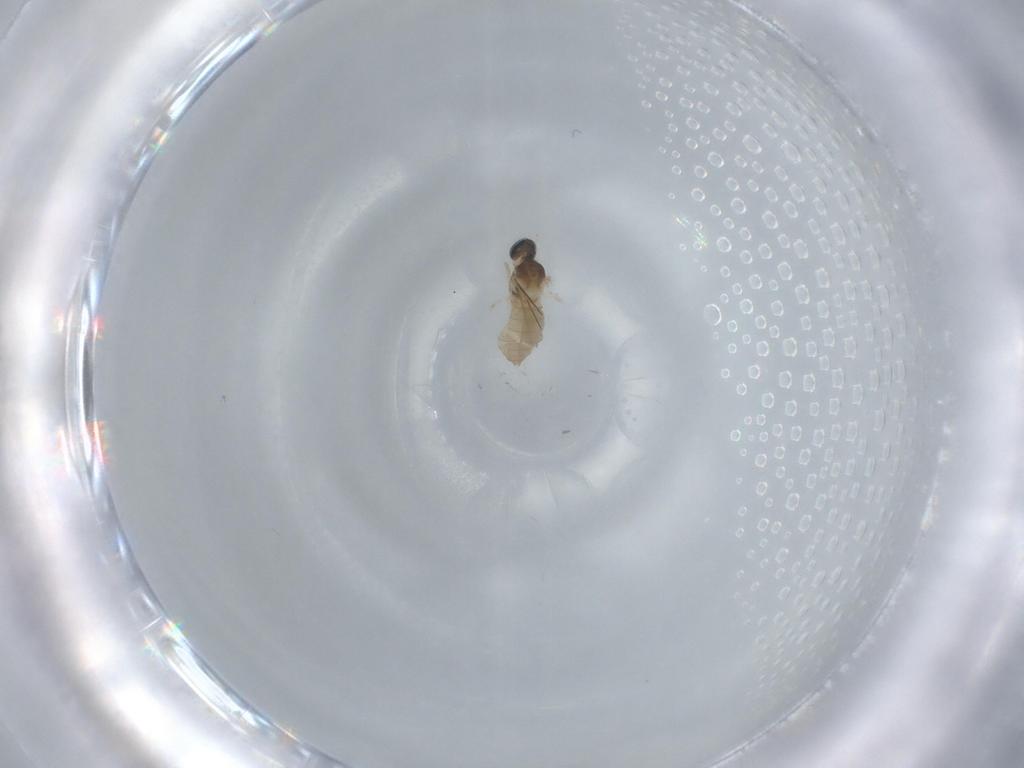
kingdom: Animalia
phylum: Arthropoda
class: Insecta
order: Diptera
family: Cecidomyiidae
